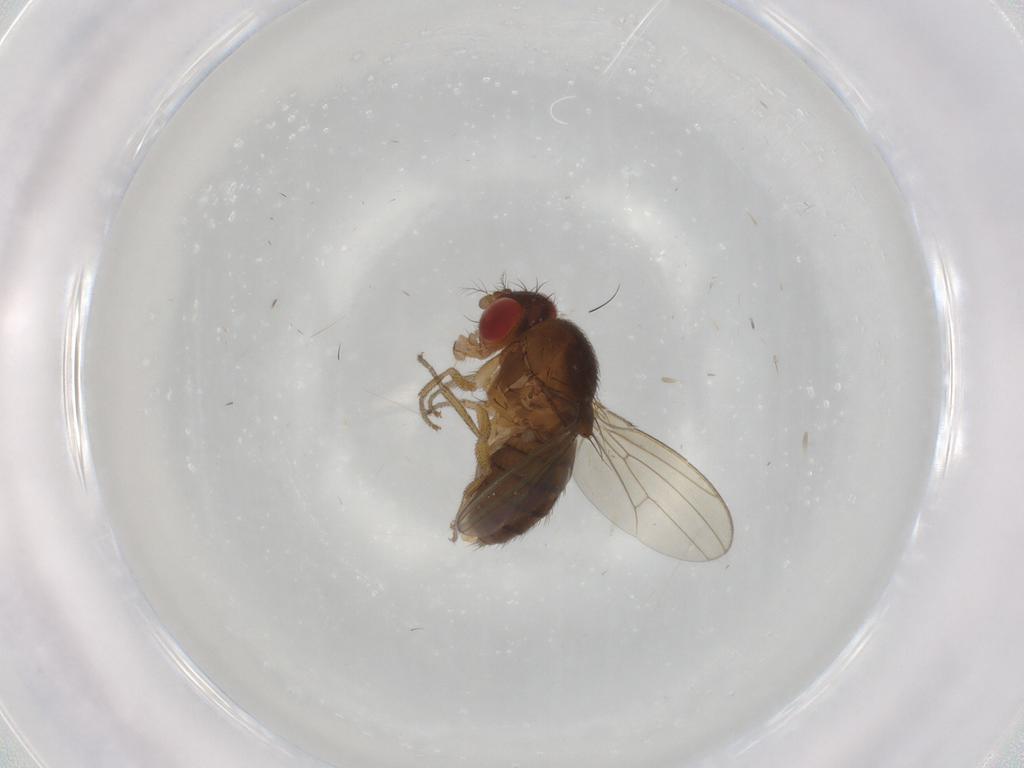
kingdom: Animalia
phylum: Arthropoda
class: Insecta
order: Diptera
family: Drosophilidae
